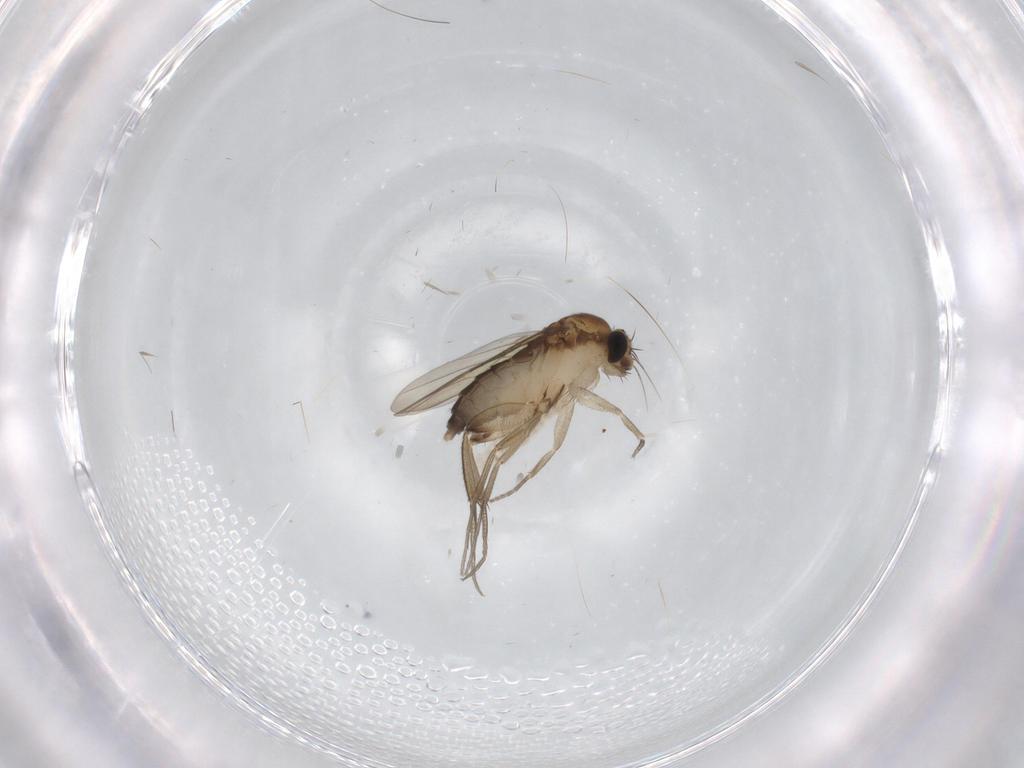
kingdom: Animalia
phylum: Arthropoda
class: Insecta
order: Diptera
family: Phoridae
